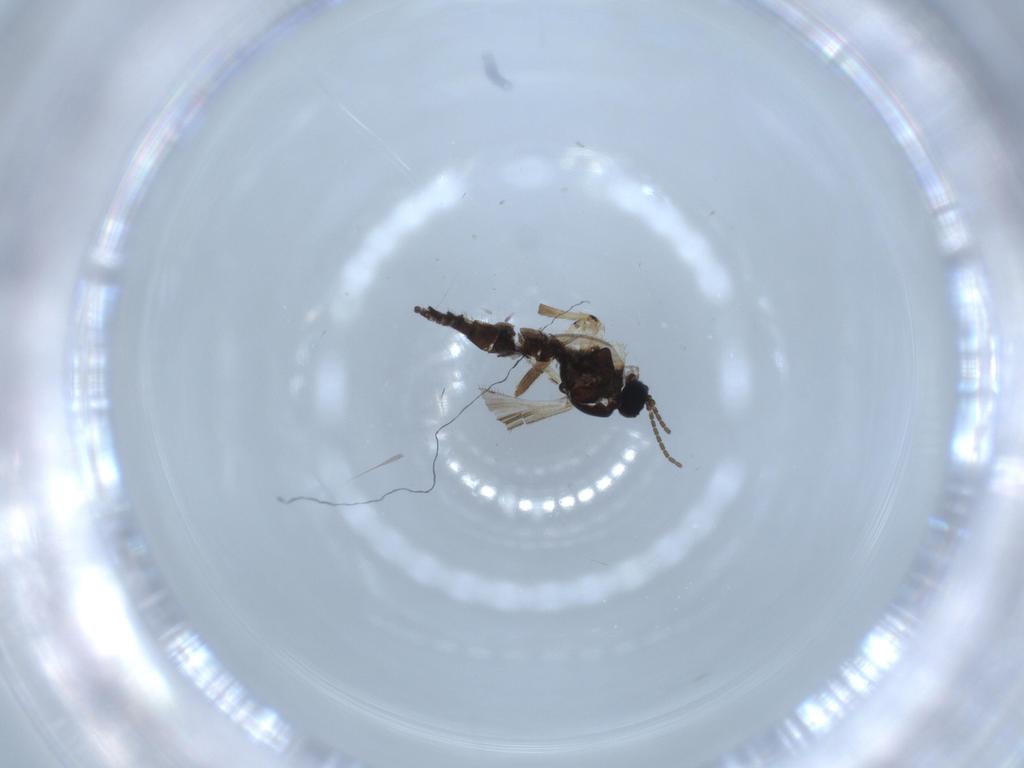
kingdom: Animalia
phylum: Arthropoda
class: Insecta
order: Diptera
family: Sciaridae
